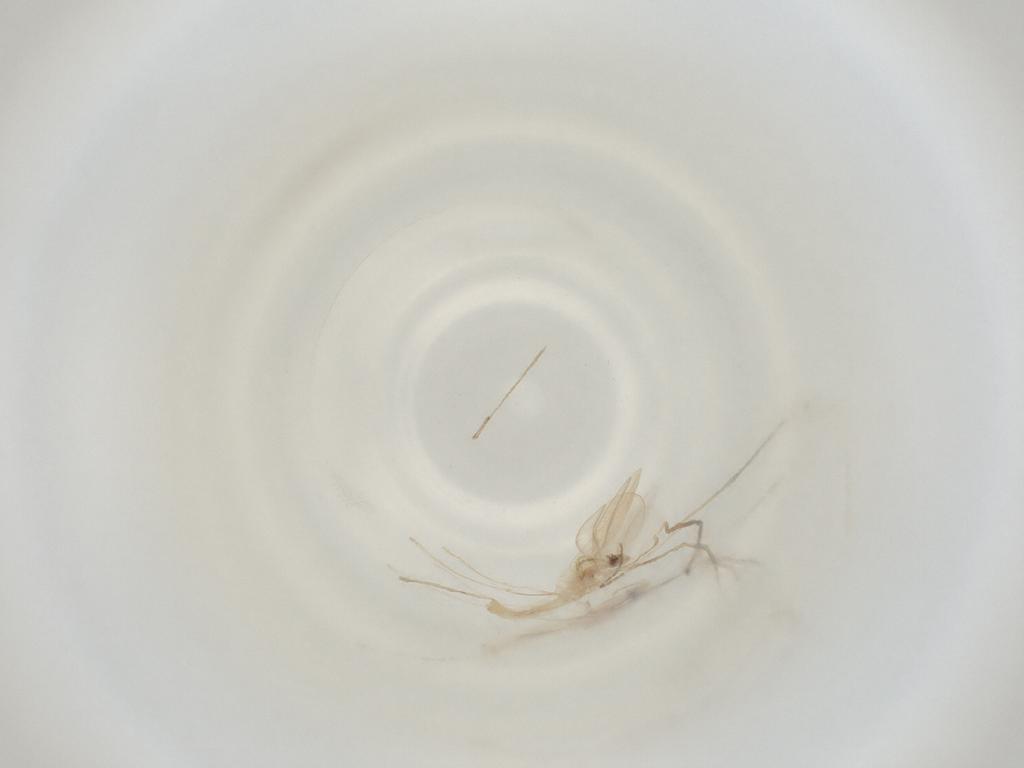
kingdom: Animalia
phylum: Arthropoda
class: Insecta
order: Diptera
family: Cecidomyiidae
